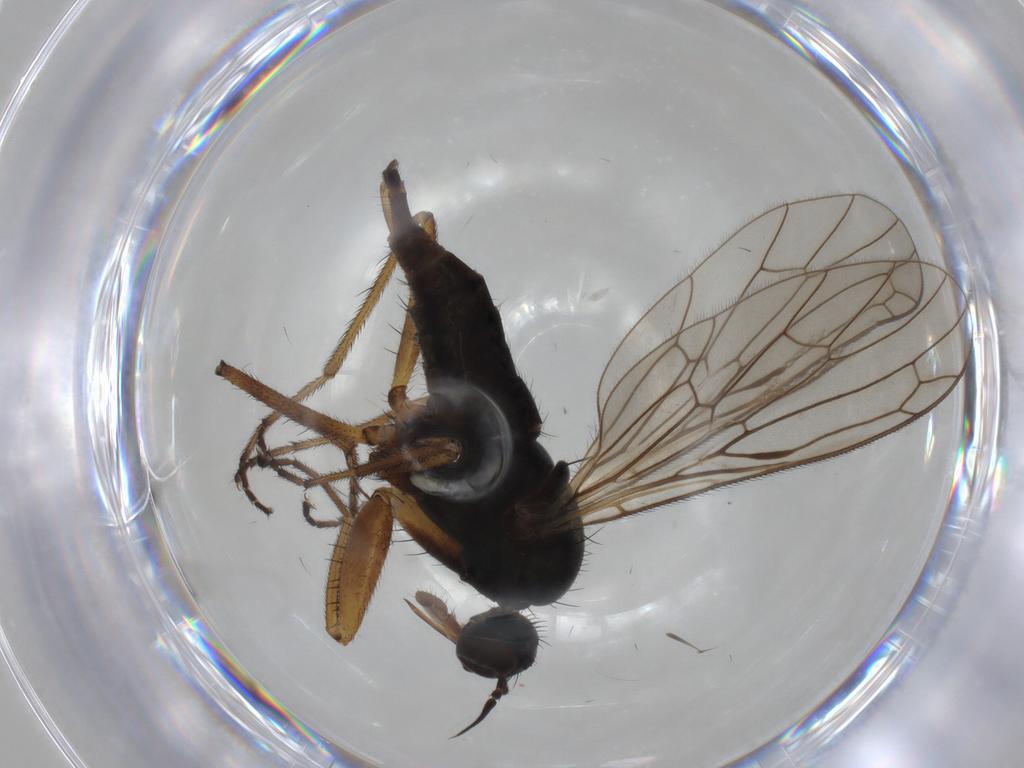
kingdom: Animalia
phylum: Arthropoda
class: Insecta
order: Diptera
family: Empididae
